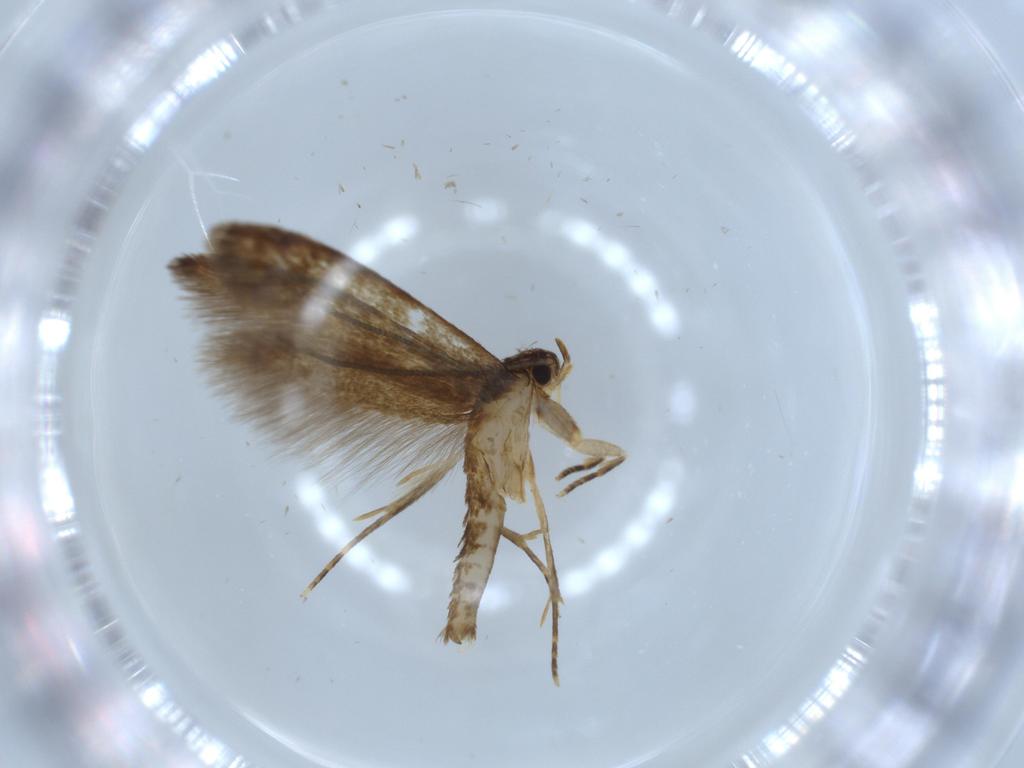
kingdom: Animalia
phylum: Arthropoda
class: Insecta
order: Lepidoptera
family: Tineidae
